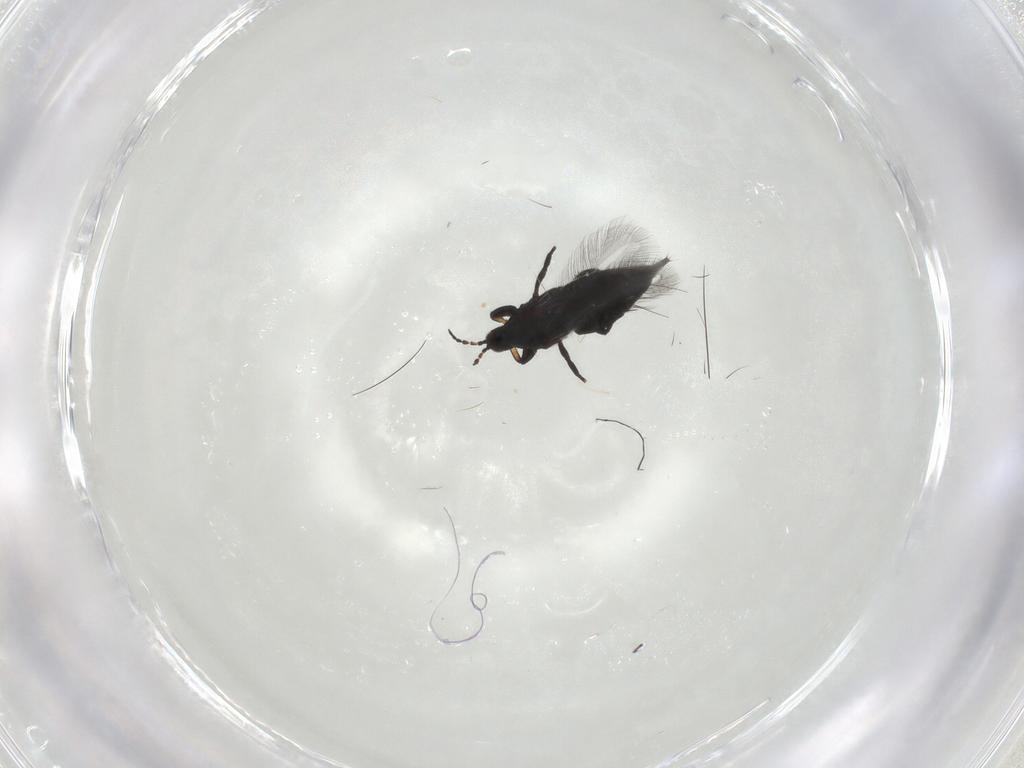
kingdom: Animalia
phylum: Arthropoda
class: Insecta
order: Thysanoptera
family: Phlaeothripidae
